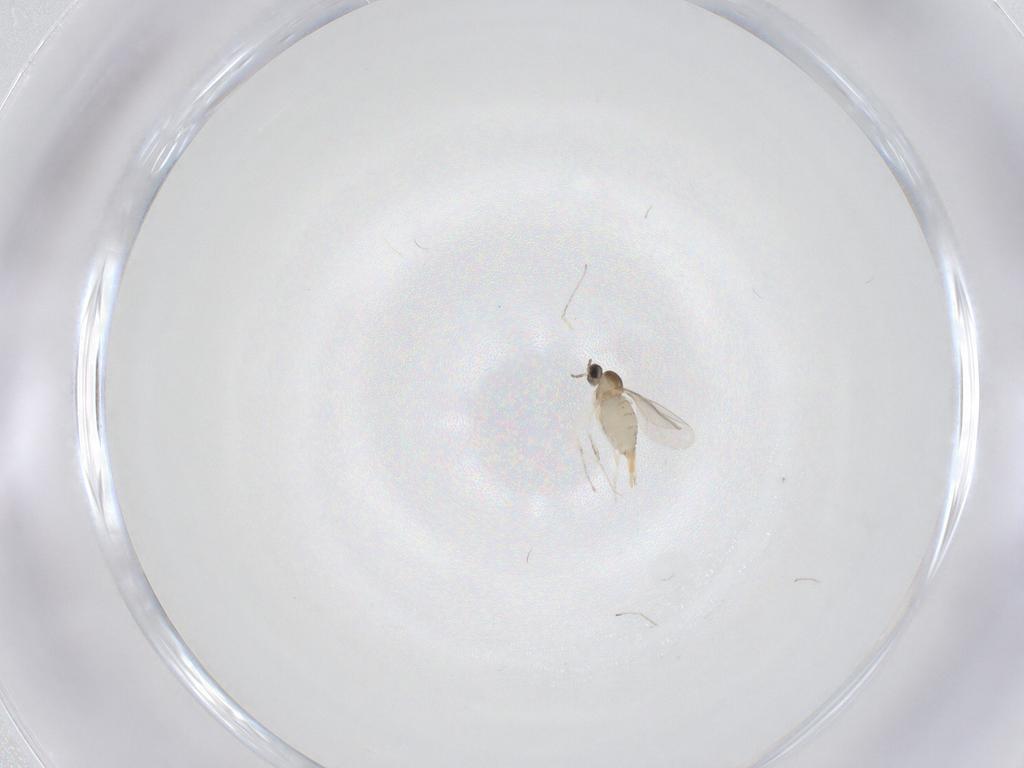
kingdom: Animalia
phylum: Arthropoda
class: Insecta
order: Diptera
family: Cecidomyiidae
